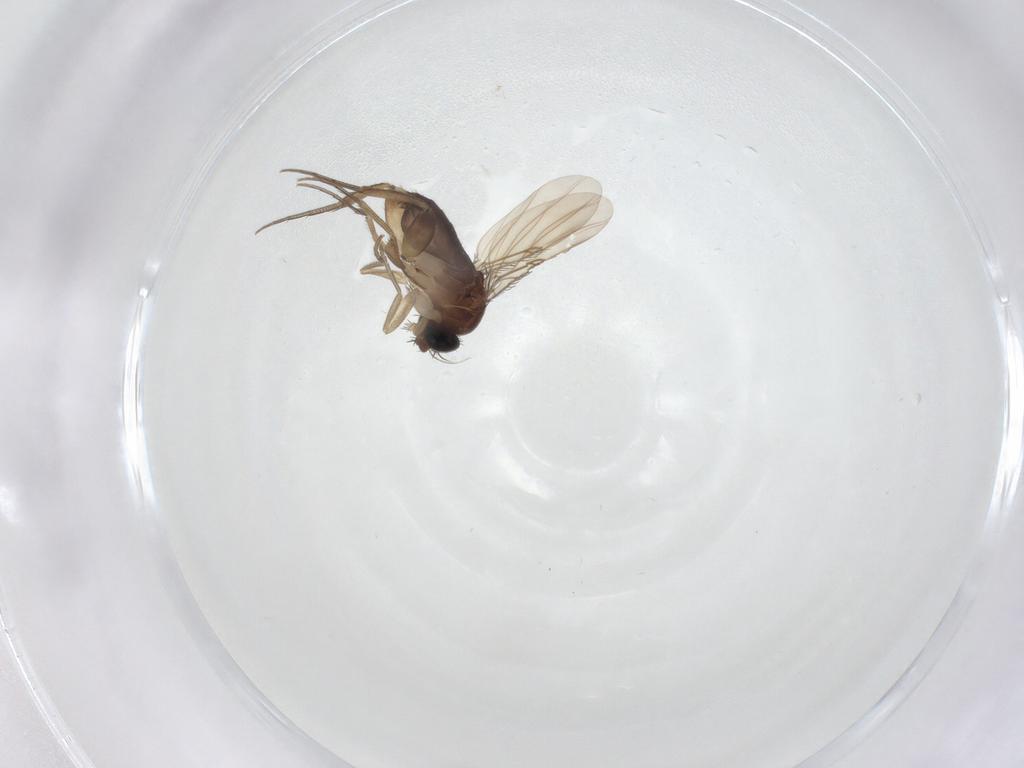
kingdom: Animalia
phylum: Arthropoda
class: Insecta
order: Diptera
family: Phoridae
